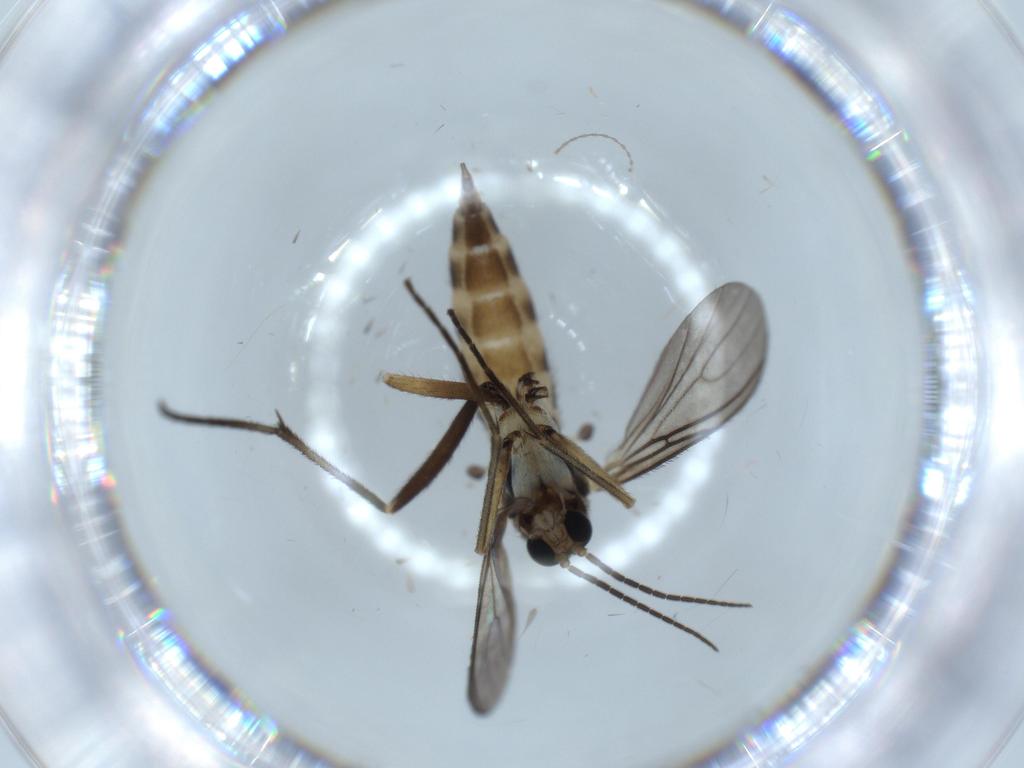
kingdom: Animalia
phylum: Arthropoda
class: Insecta
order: Diptera
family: Sciaridae
